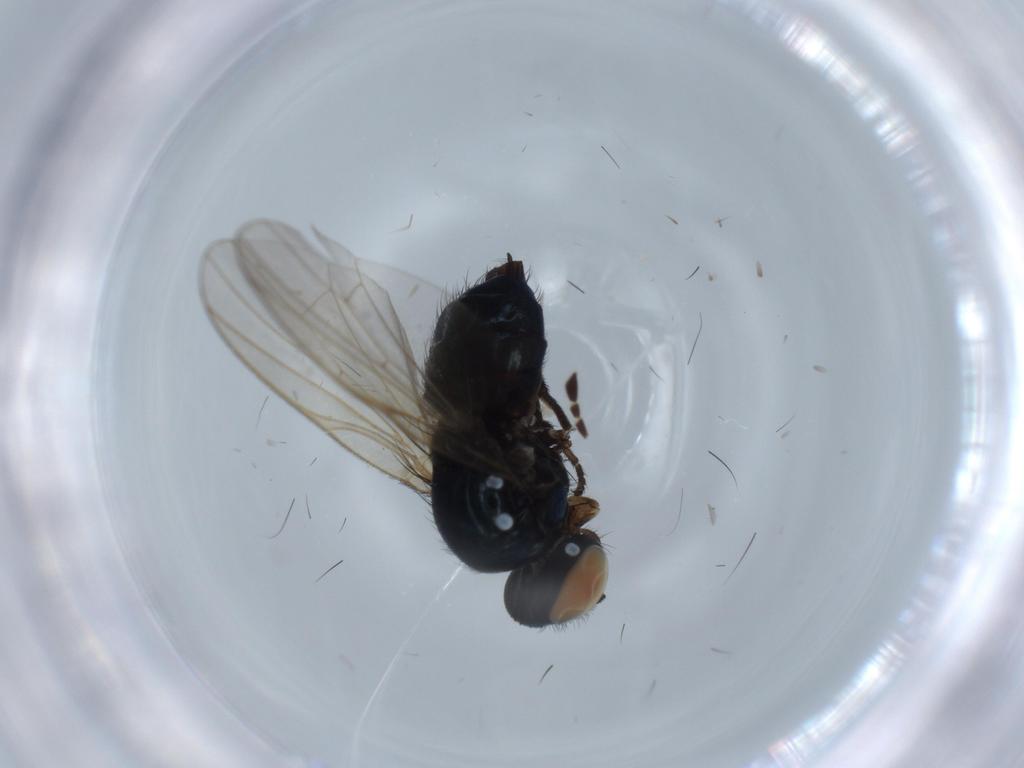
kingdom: Animalia
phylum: Arthropoda
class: Insecta
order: Diptera
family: Lonchaeidae
